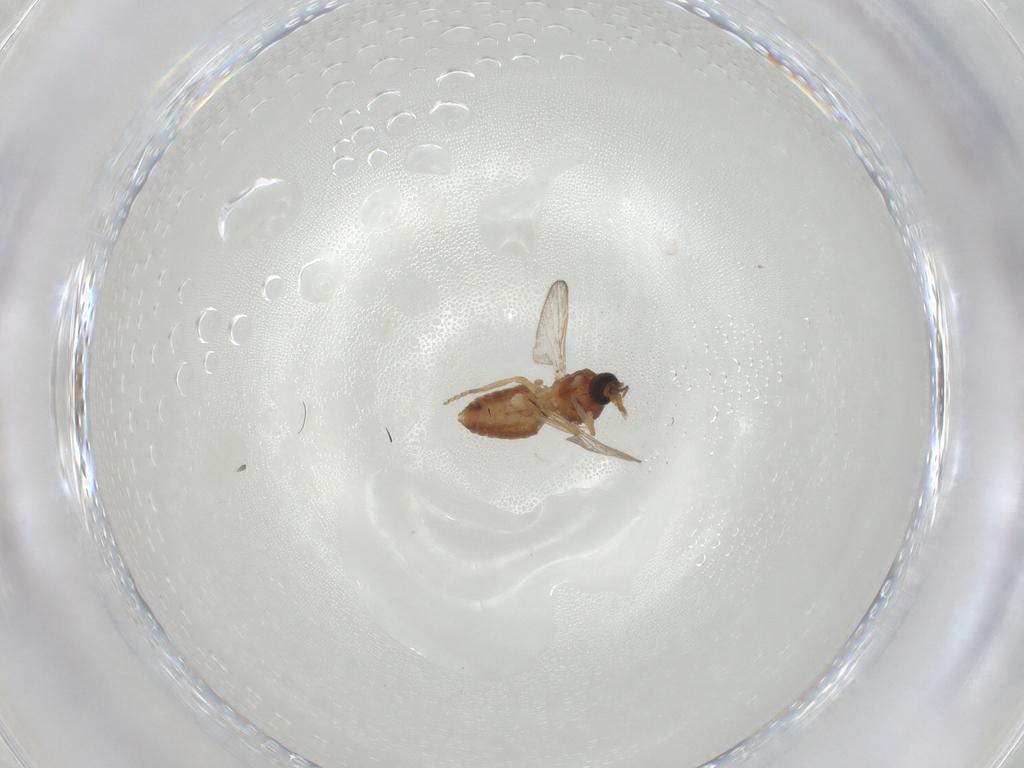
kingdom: Animalia
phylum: Arthropoda
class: Insecta
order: Diptera
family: Ceratopogonidae
